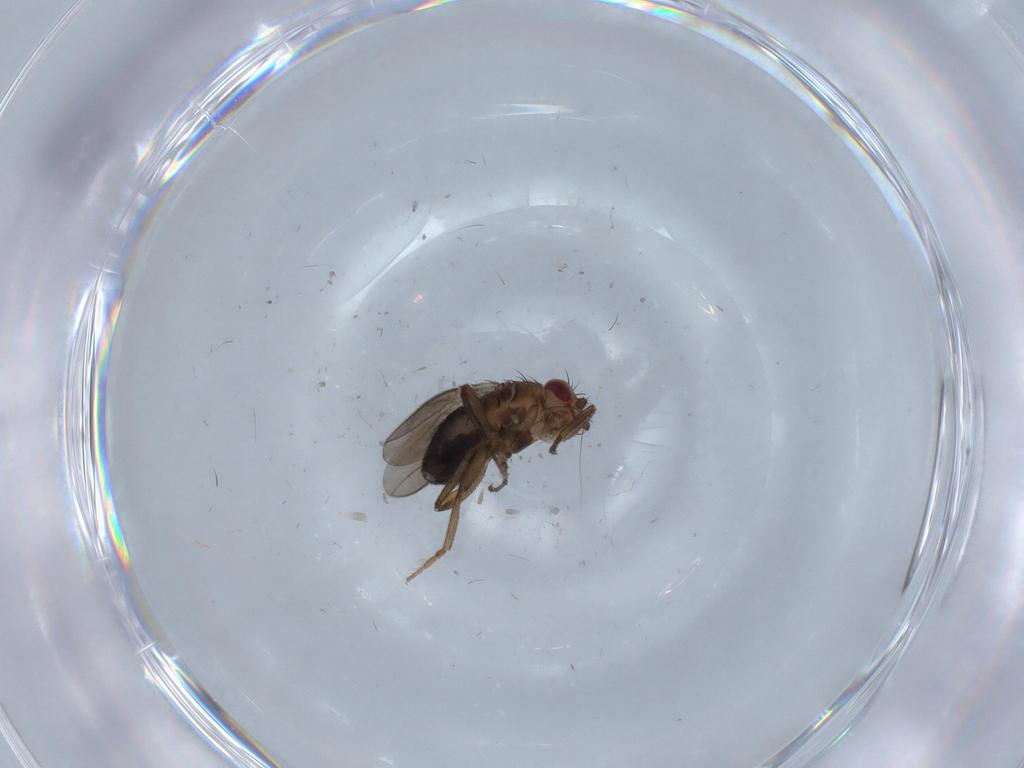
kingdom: Animalia
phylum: Arthropoda
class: Insecta
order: Diptera
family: Sphaeroceridae
